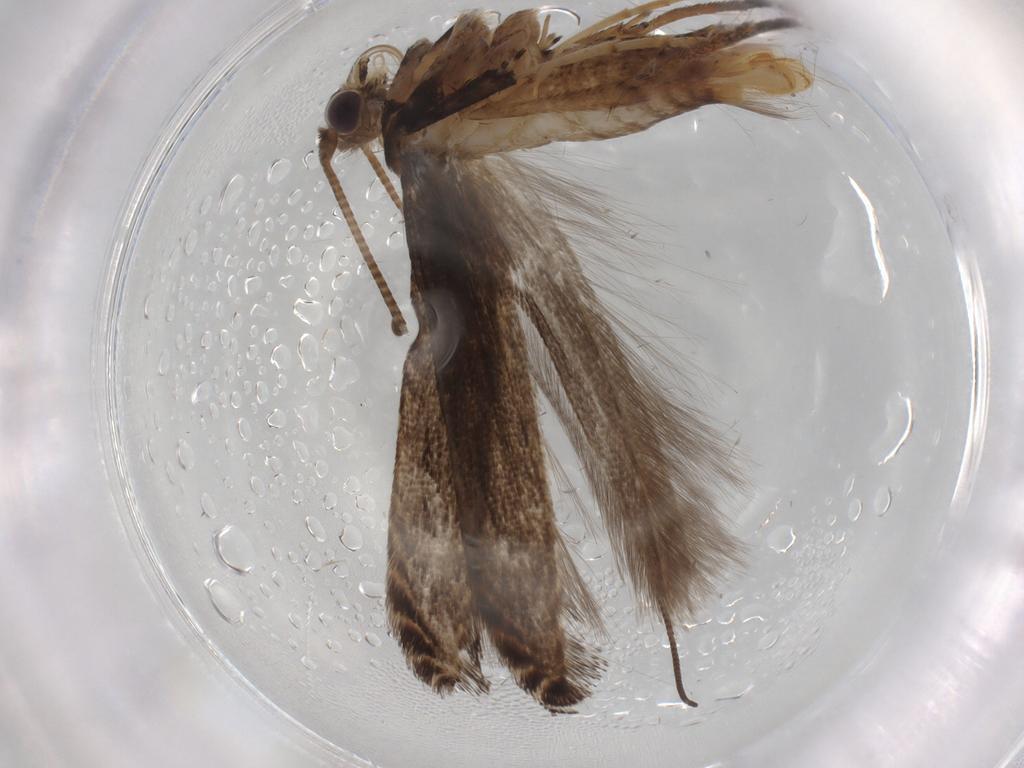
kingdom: Animalia
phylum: Arthropoda
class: Insecta
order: Lepidoptera
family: Gracillariidae
